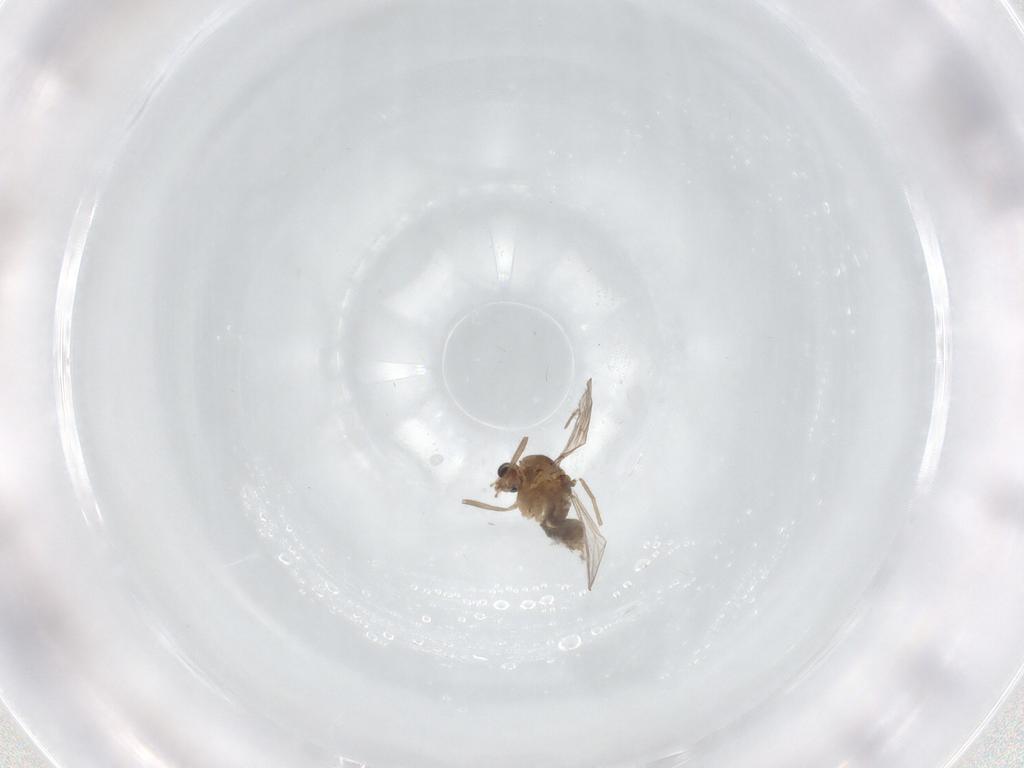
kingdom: Animalia
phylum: Arthropoda
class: Insecta
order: Diptera
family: Chironomidae
